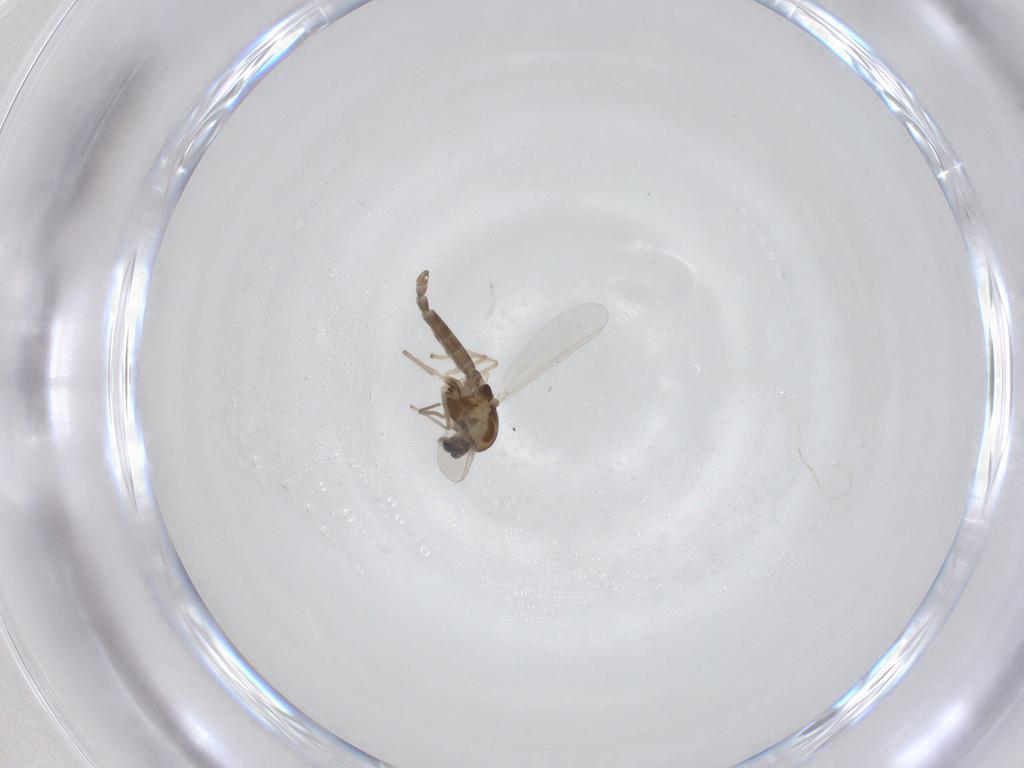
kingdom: Animalia
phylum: Arthropoda
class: Insecta
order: Diptera
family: Chironomidae
